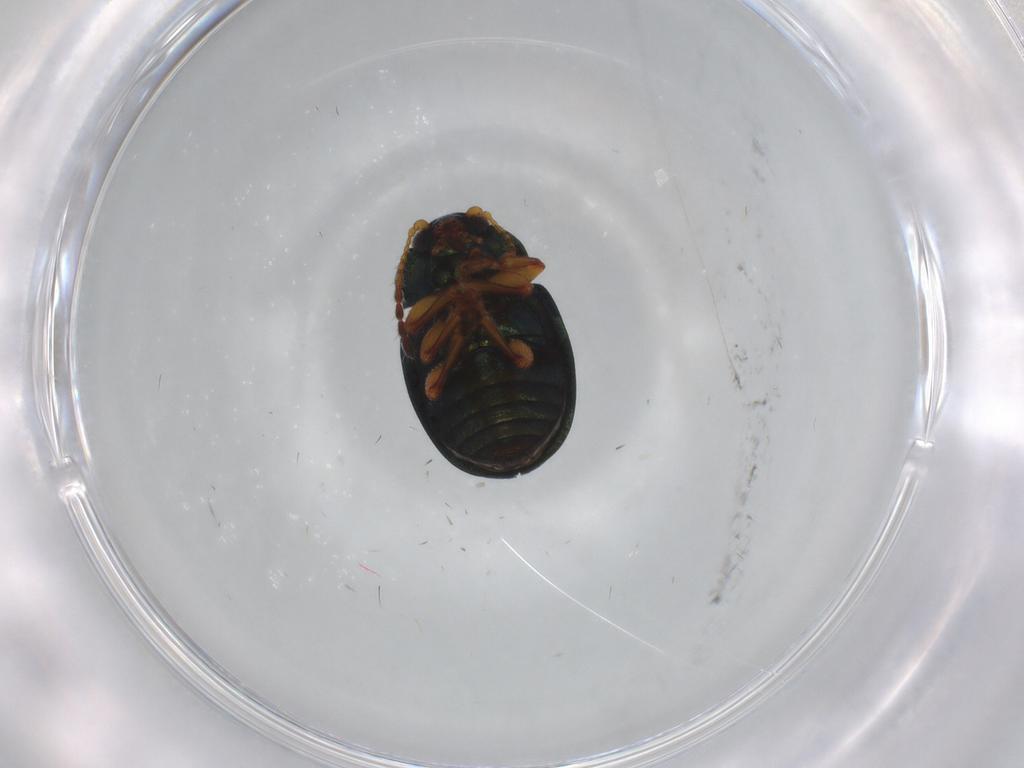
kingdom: Animalia
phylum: Arthropoda
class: Insecta
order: Coleoptera
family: Chrysomelidae
